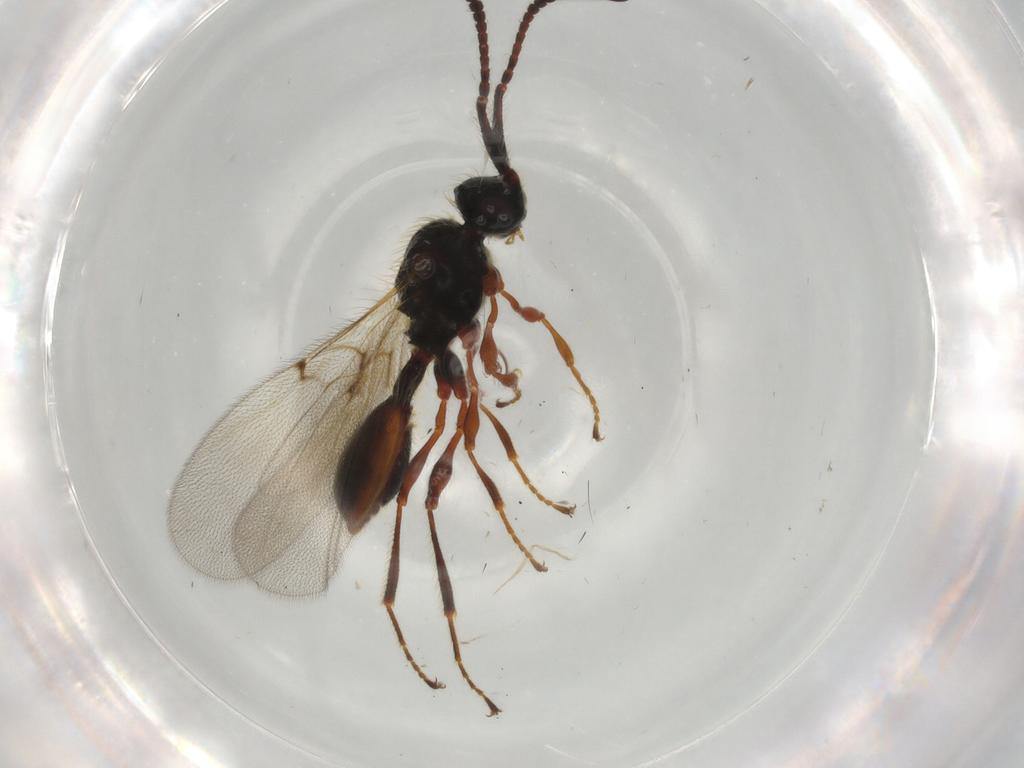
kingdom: Animalia
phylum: Arthropoda
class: Insecta
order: Hymenoptera
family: Diapriidae
